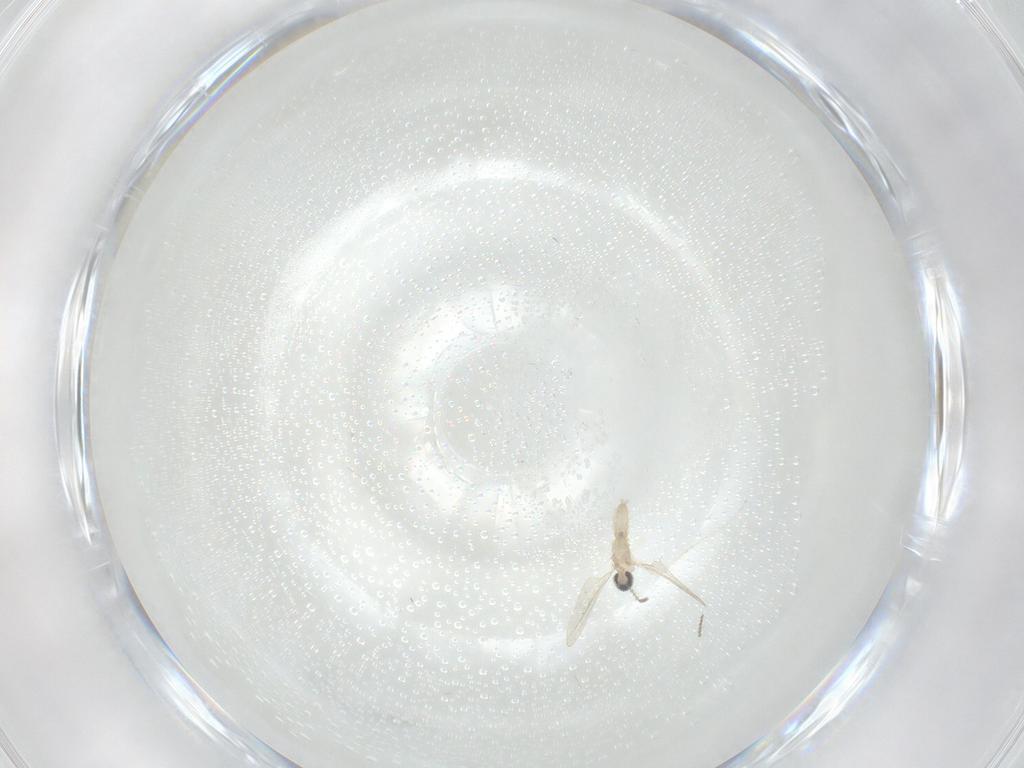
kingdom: Animalia
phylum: Arthropoda
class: Insecta
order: Diptera
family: Cecidomyiidae
